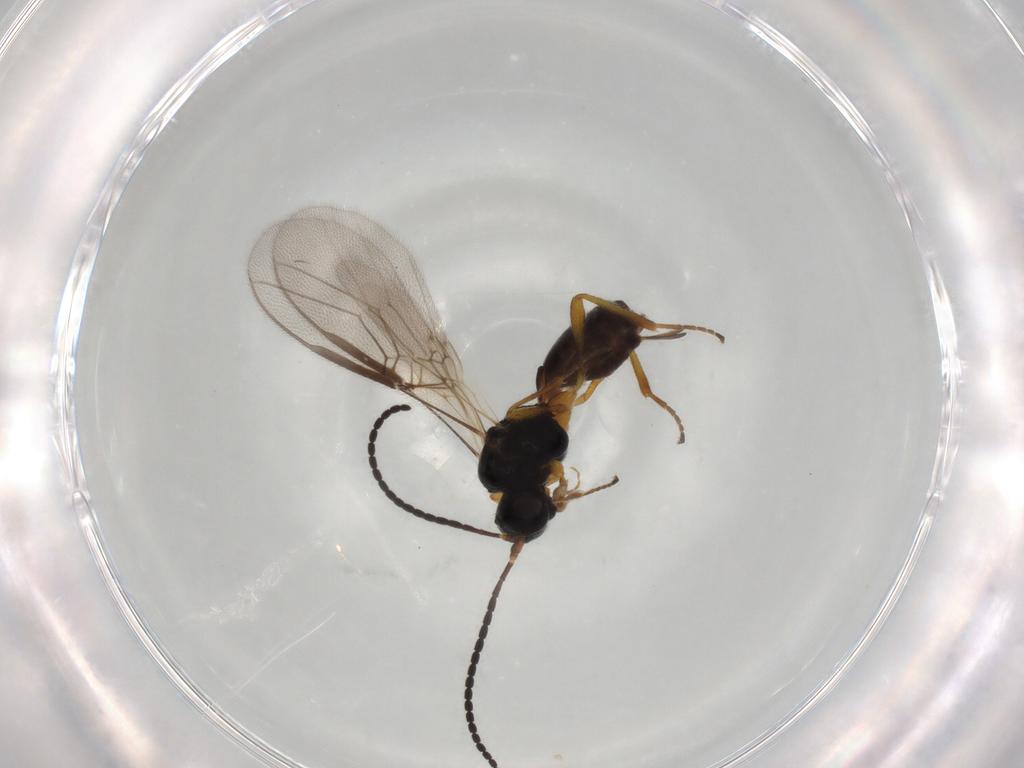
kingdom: Animalia
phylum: Arthropoda
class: Insecta
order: Hymenoptera
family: Braconidae
